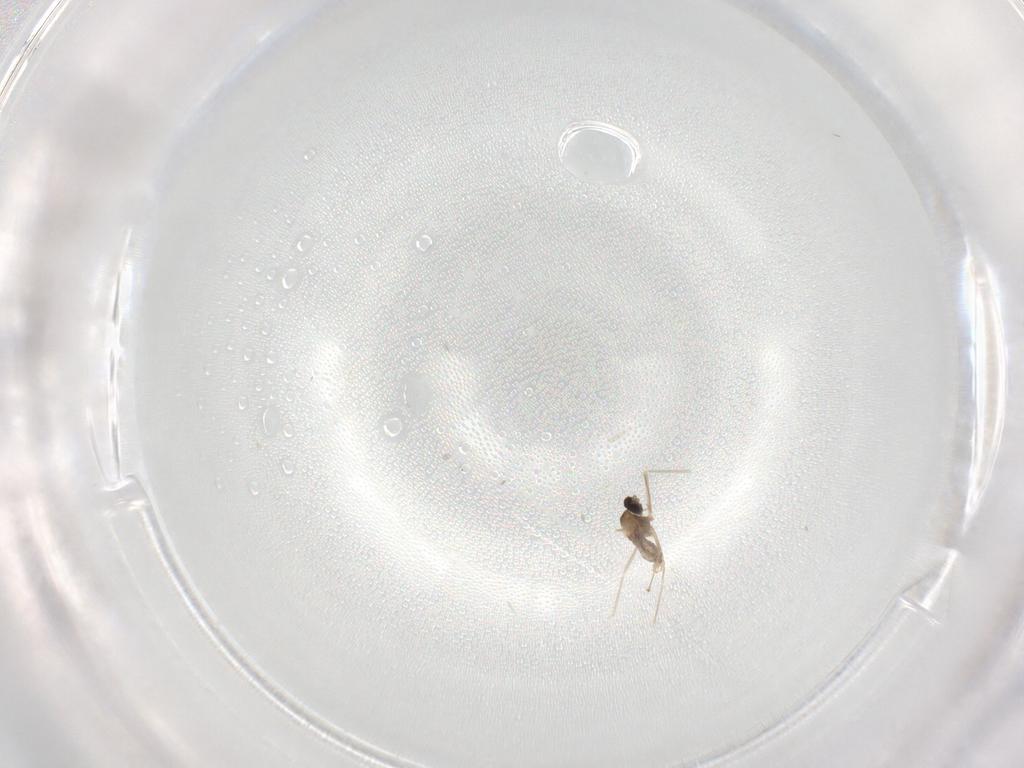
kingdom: Animalia
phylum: Arthropoda
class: Insecta
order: Diptera
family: Cecidomyiidae
